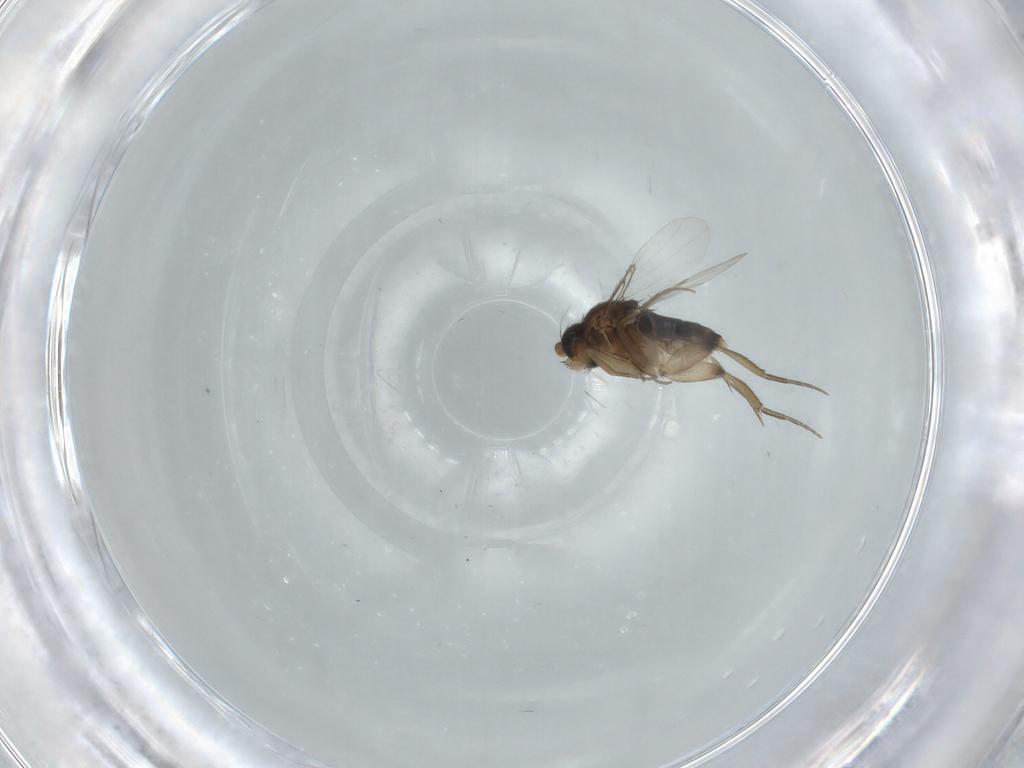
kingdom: Animalia
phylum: Arthropoda
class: Insecta
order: Diptera
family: Phoridae
